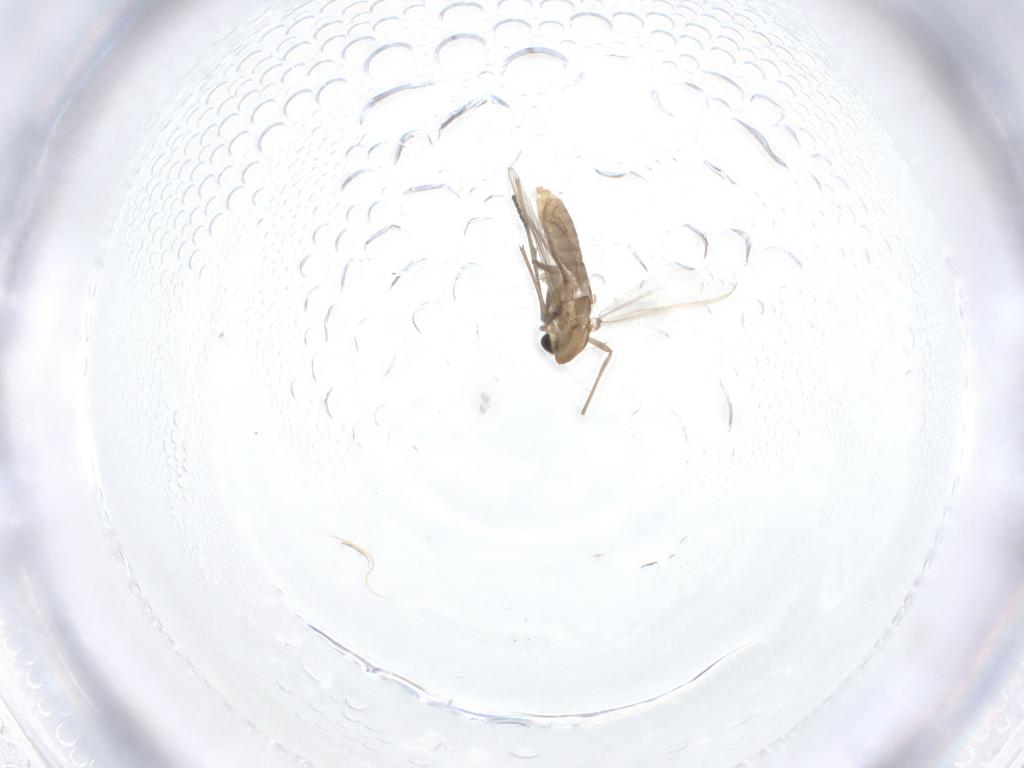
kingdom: Animalia
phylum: Arthropoda
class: Insecta
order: Diptera
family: Chironomidae
